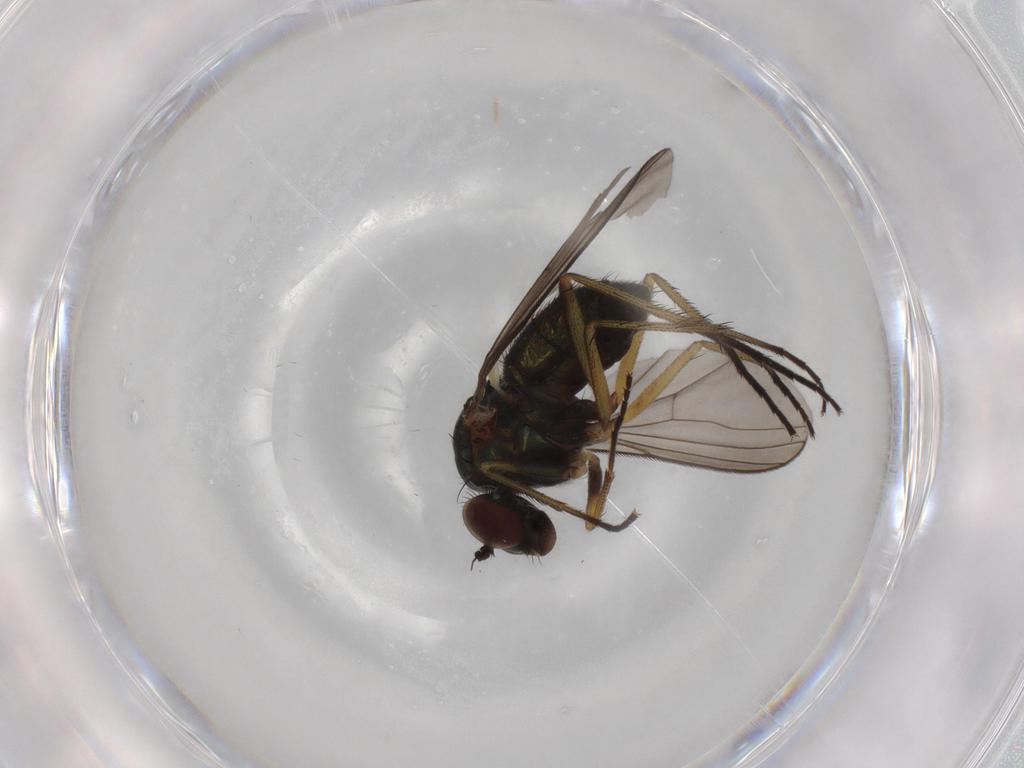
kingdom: Animalia
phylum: Arthropoda
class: Insecta
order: Diptera
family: Dolichopodidae
